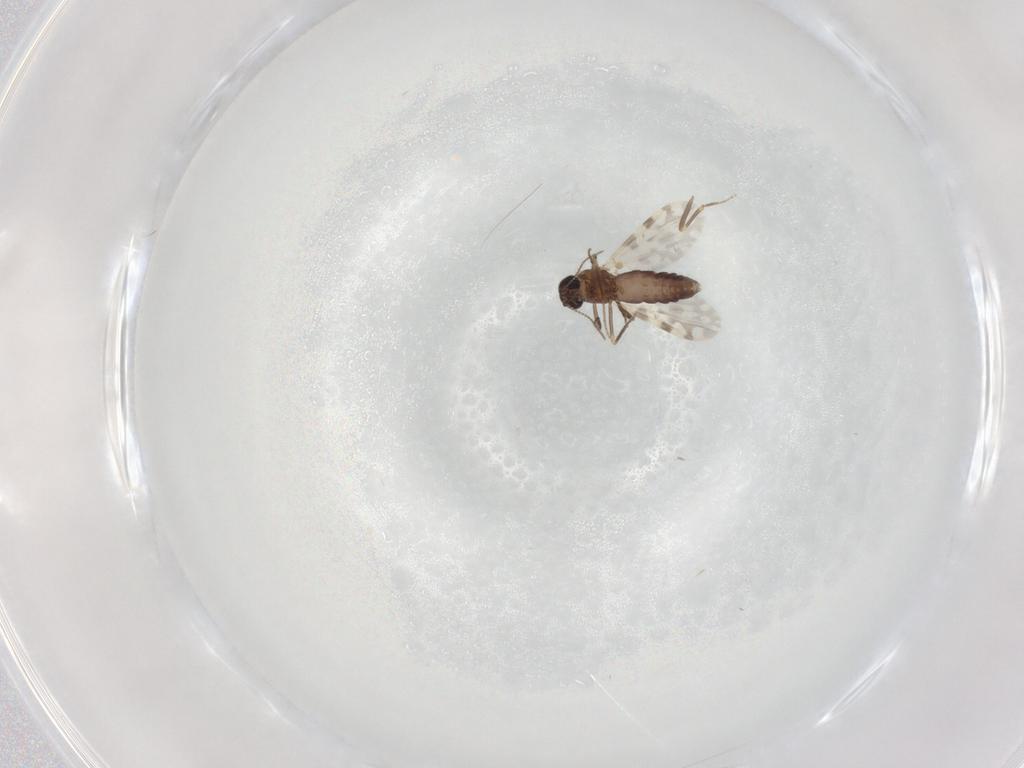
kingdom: Animalia
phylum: Arthropoda
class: Insecta
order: Diptera
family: Ceratopogonidae
